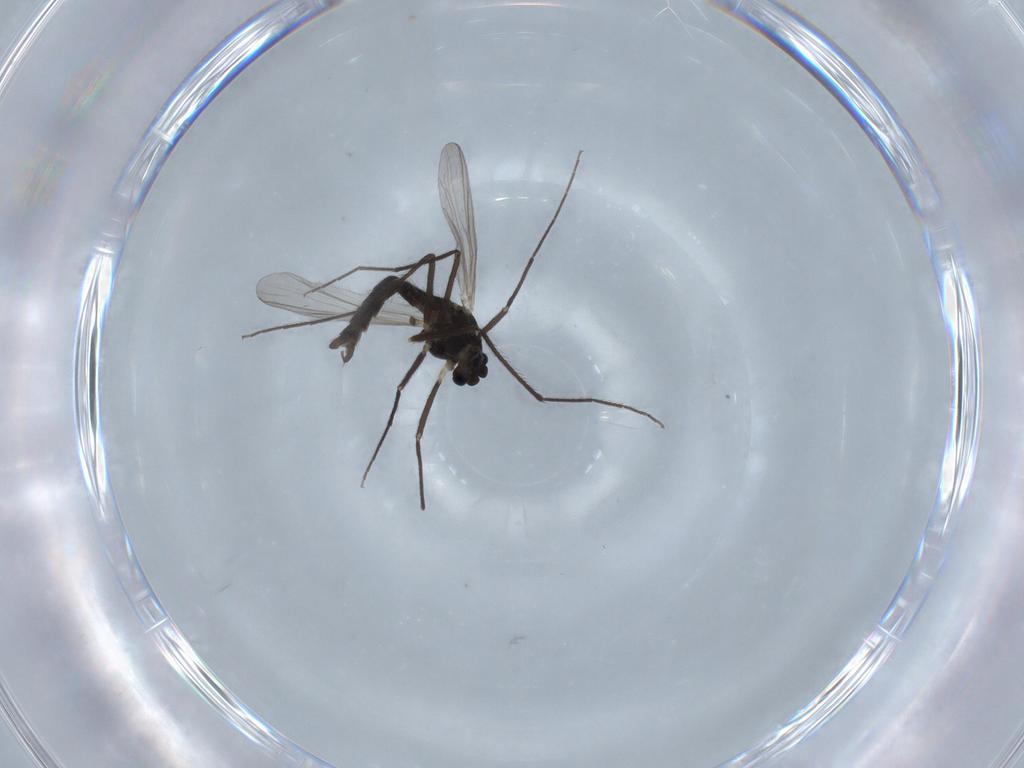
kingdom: Animalia
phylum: Arthropoda
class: Insecta
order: Diptera
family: Chironomidae
